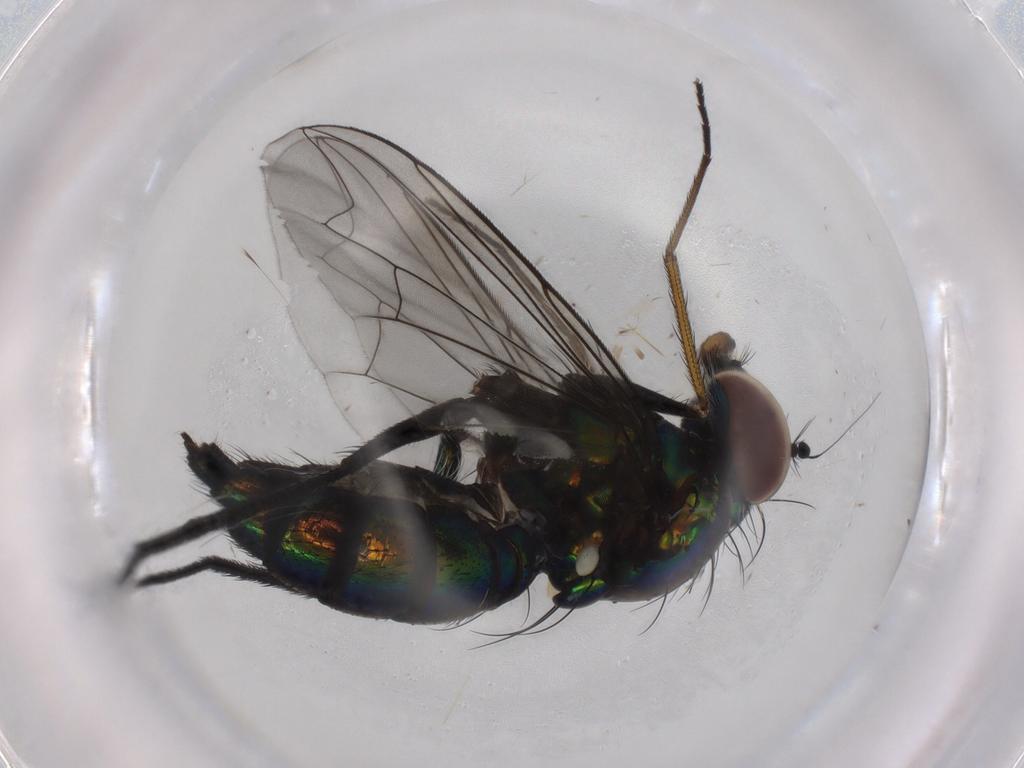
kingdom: Animalia
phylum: Arthropoda
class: Insecta
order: Diptera
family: Dolichopodidae
